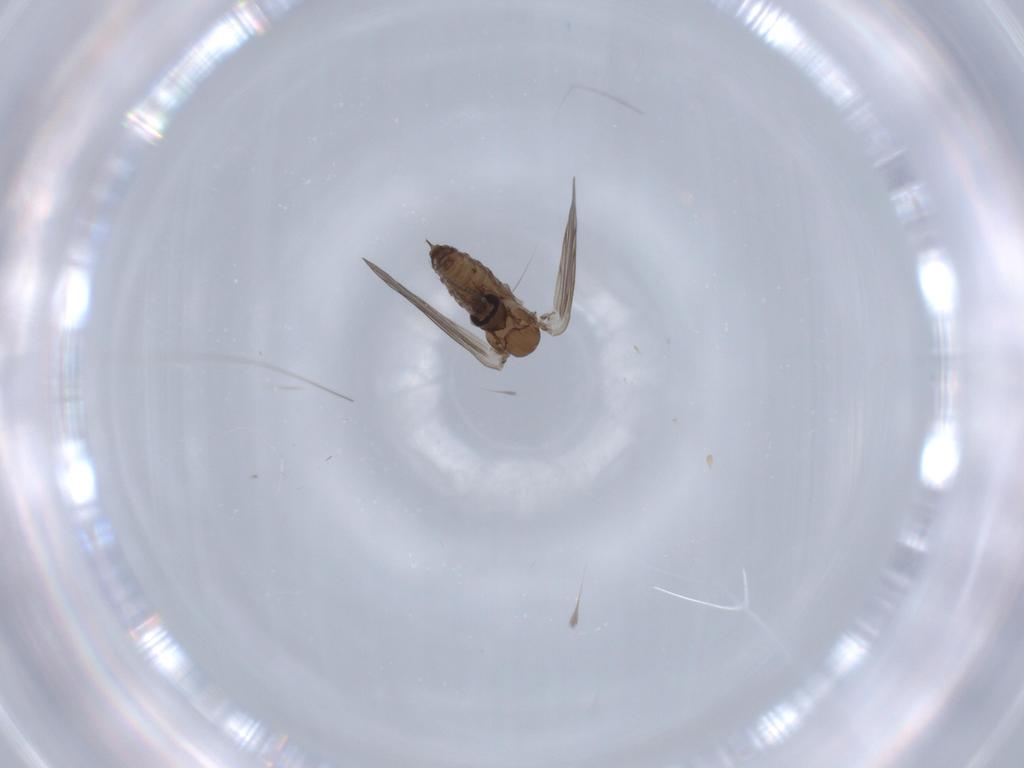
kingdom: Animalia
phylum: Arthropoda
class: Insecta
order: Diptera
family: Psychodidae
